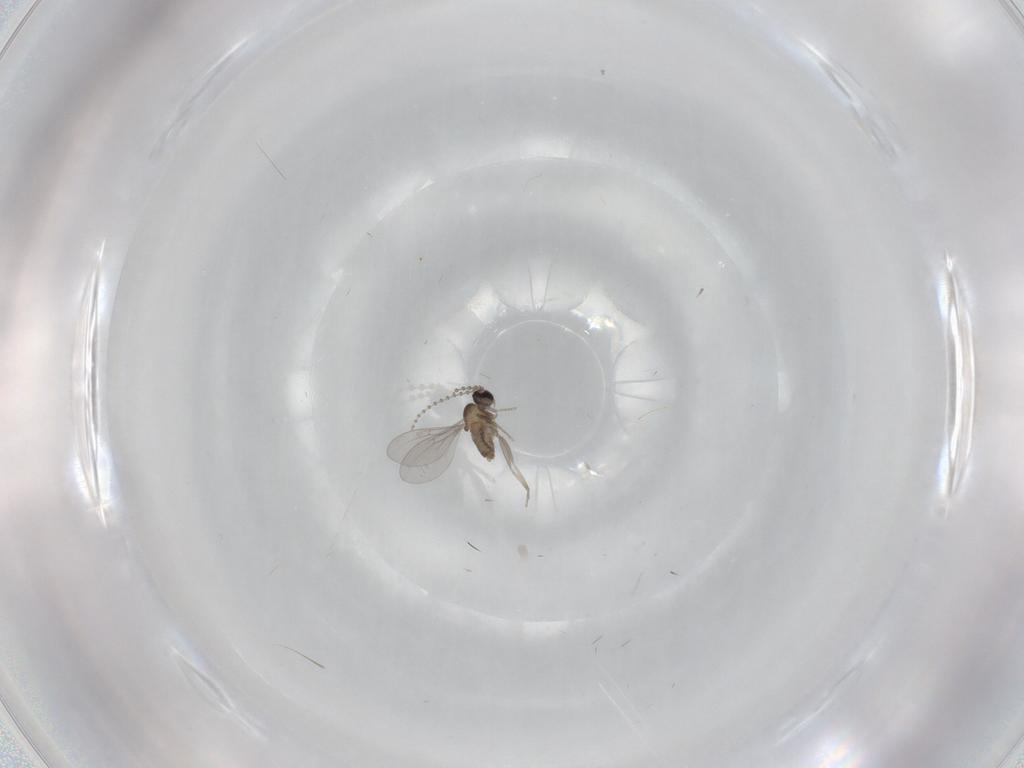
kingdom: Animalia
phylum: Arthropoda
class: Insecta
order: Diptera
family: Cecidomyiidae
